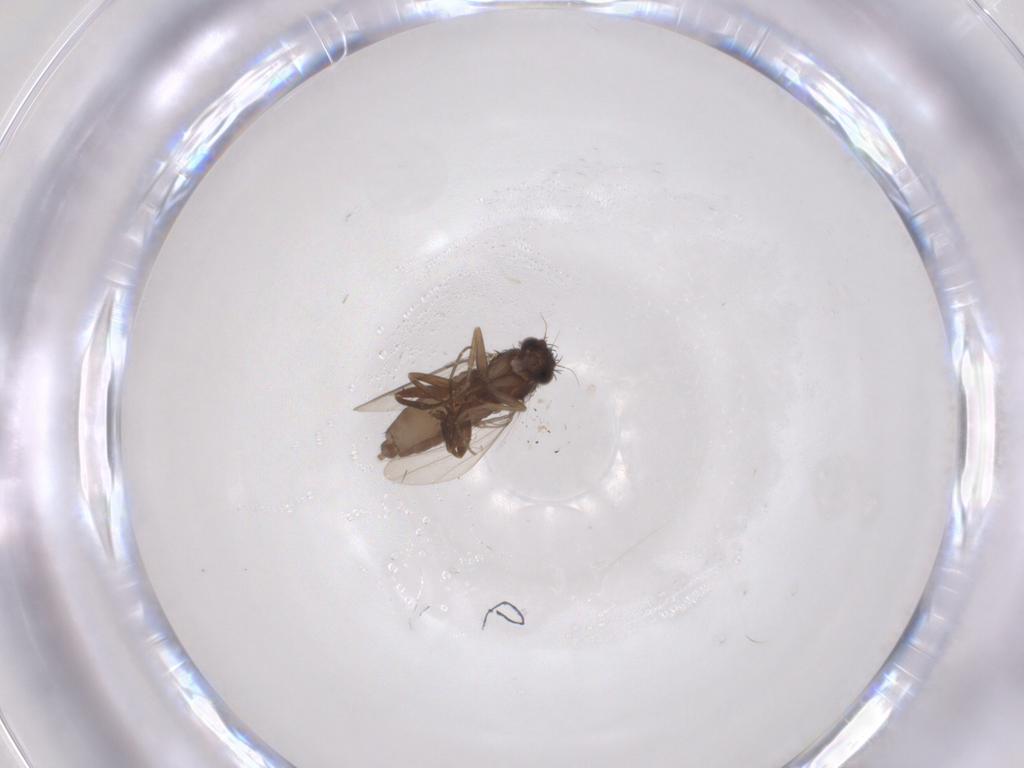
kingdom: Animalia
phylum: Arthropoda
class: Insecta
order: Diptera
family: Phoridae
